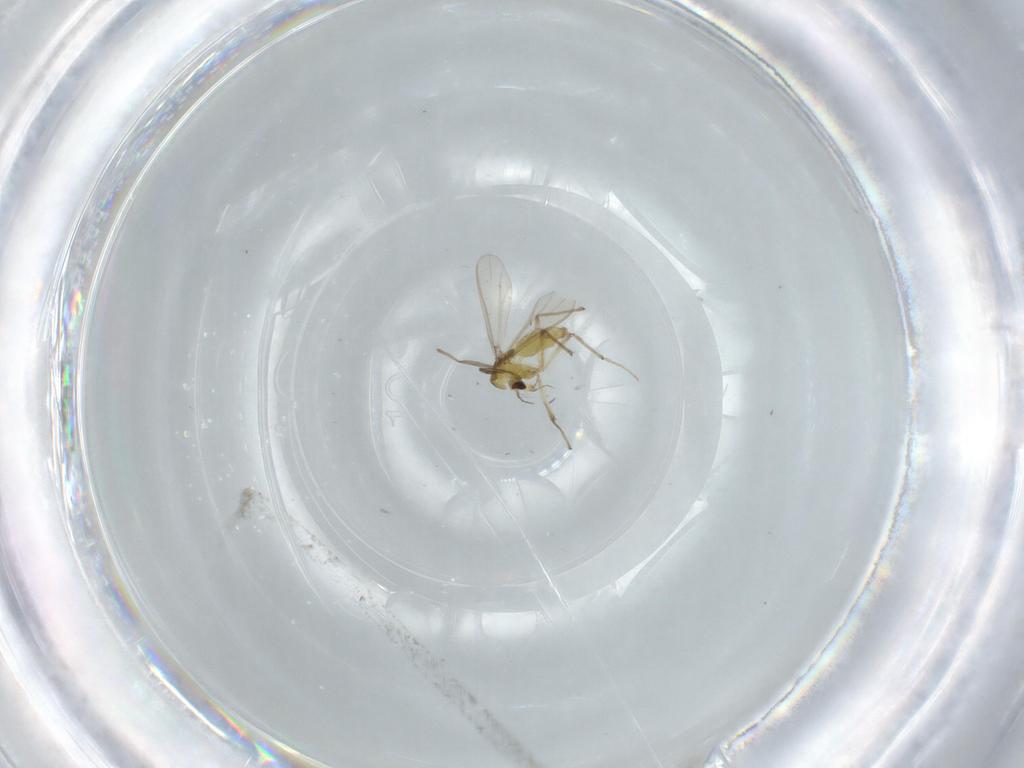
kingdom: Animalia
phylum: Arthropoda
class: Insecta
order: Diptera
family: Chironomidae
